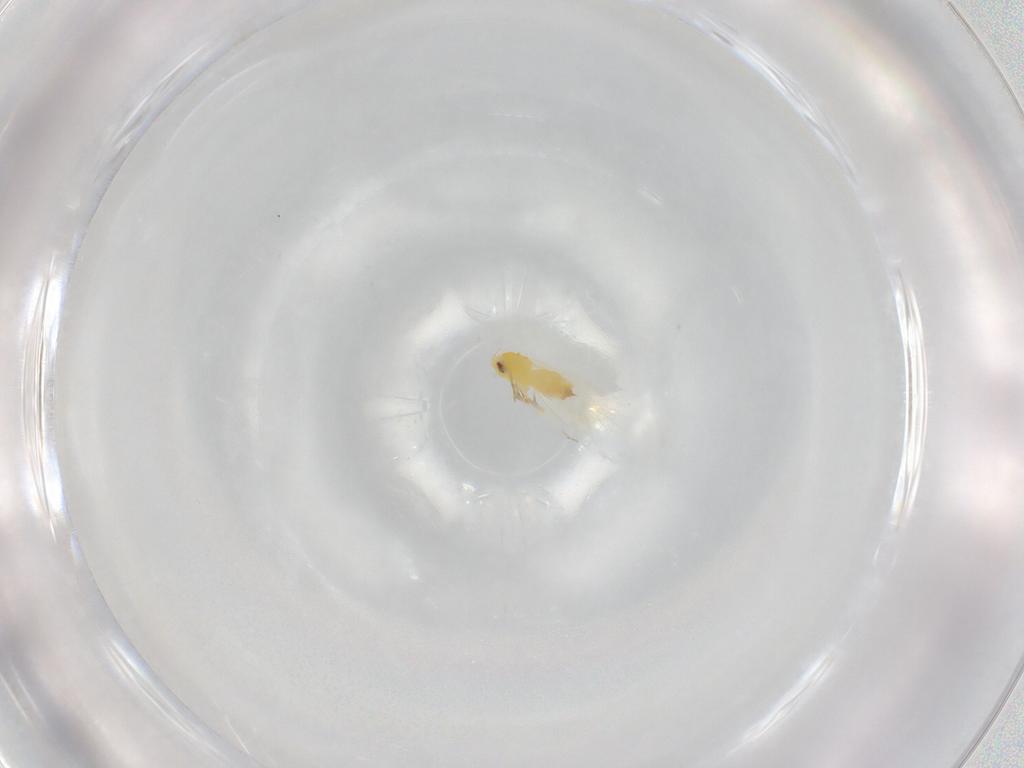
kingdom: Animalia
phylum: Arthropoda
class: Insecta
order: Hemiptera
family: Aleyrodidae
